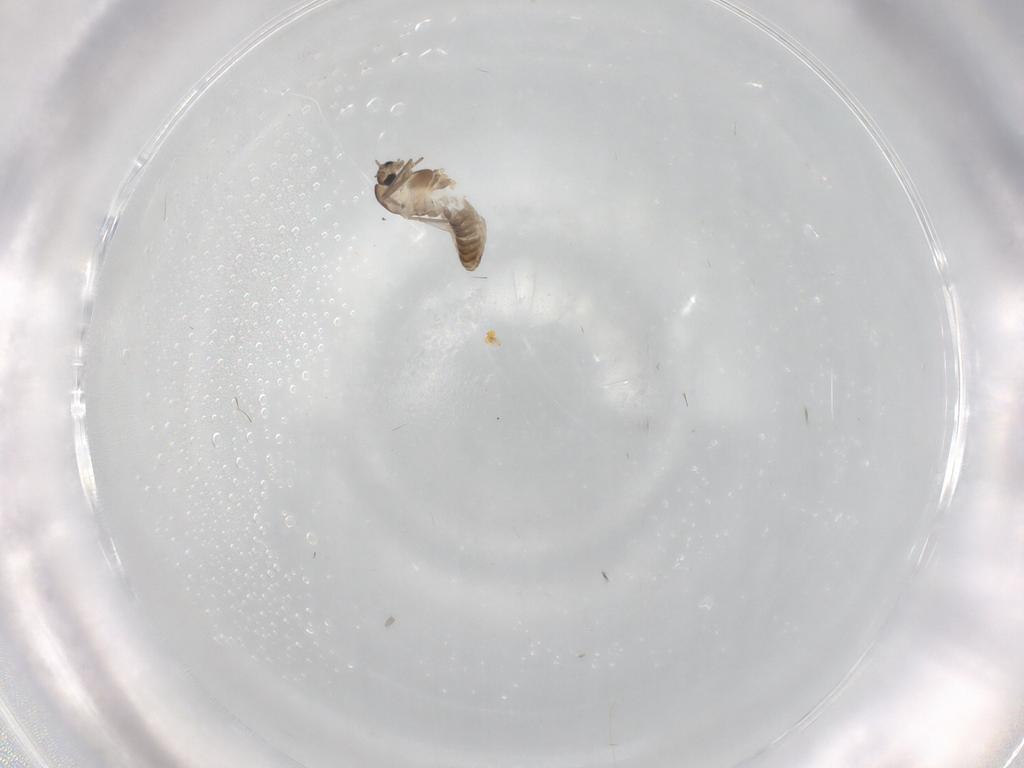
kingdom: Animalia
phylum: Arthropoda
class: Insecta
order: Diptera
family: Chironomidae
